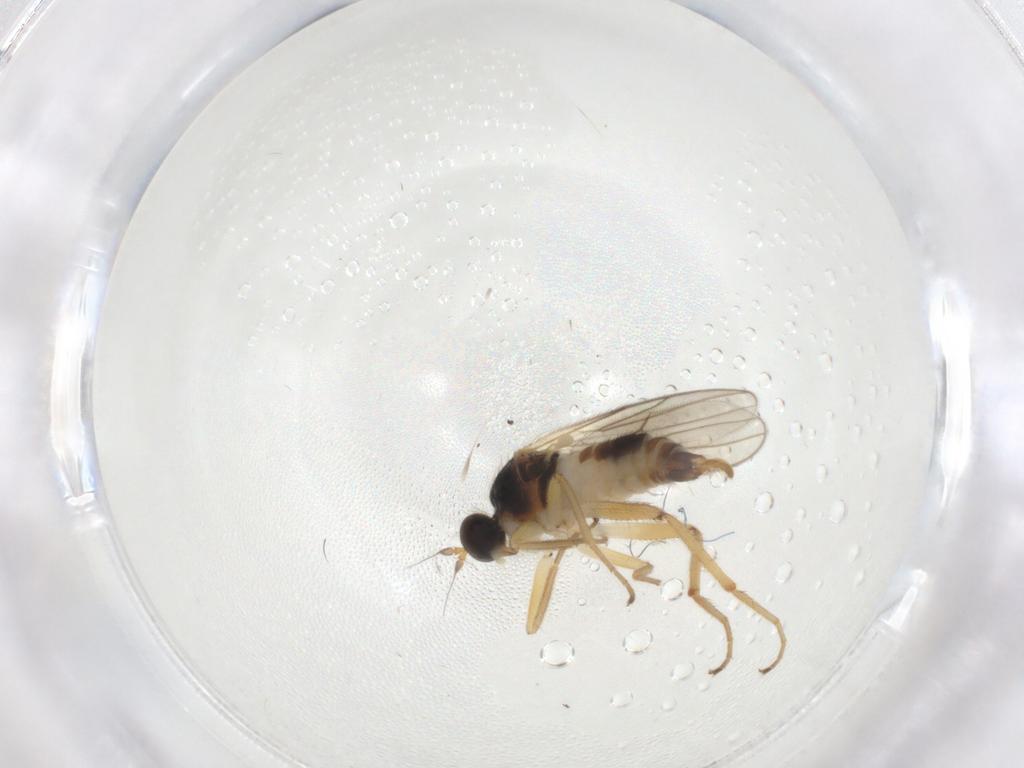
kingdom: Animalia
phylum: Arthropoda
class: Insecta
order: Diptera
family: Hybotidae
